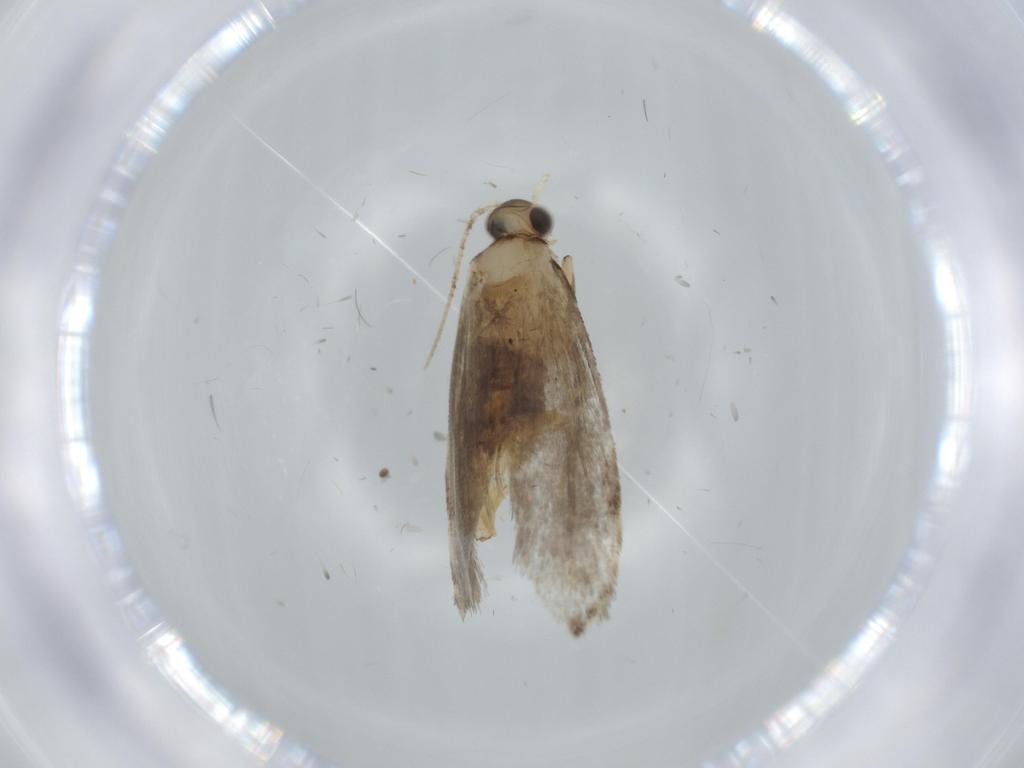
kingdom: Animalia
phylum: Arthropoda
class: Insecta
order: Lepidoptera
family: Tineidae
